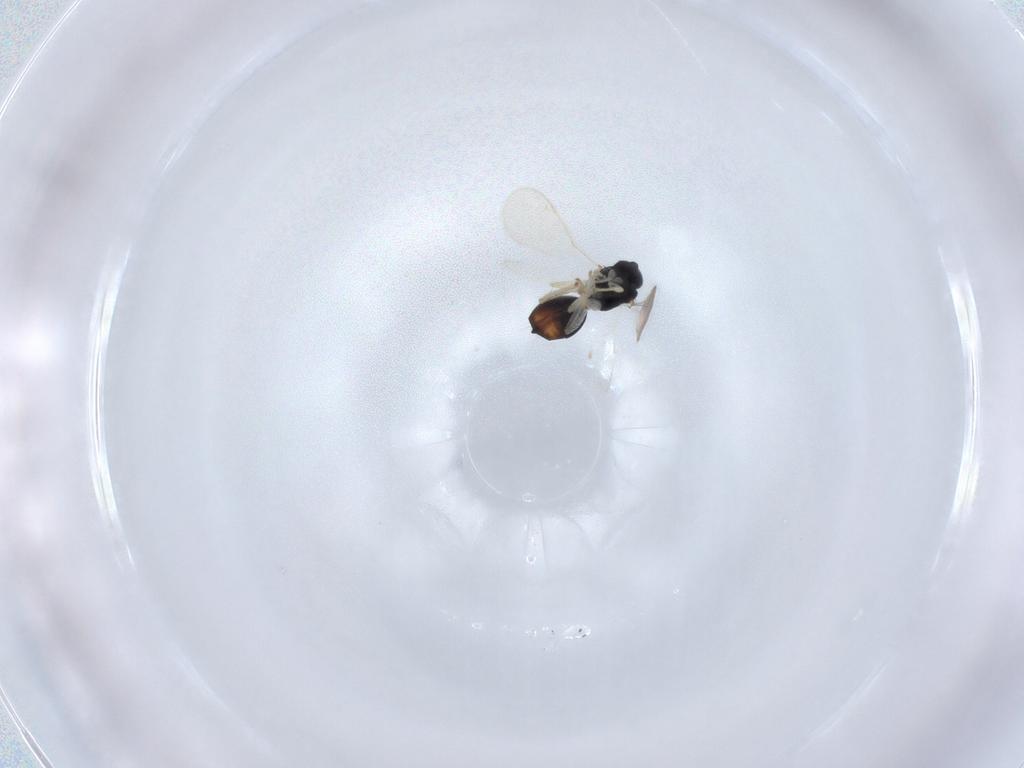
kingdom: Animalia
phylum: Arthropoda
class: Insecta
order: Hymenoptera
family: Eulophidae
